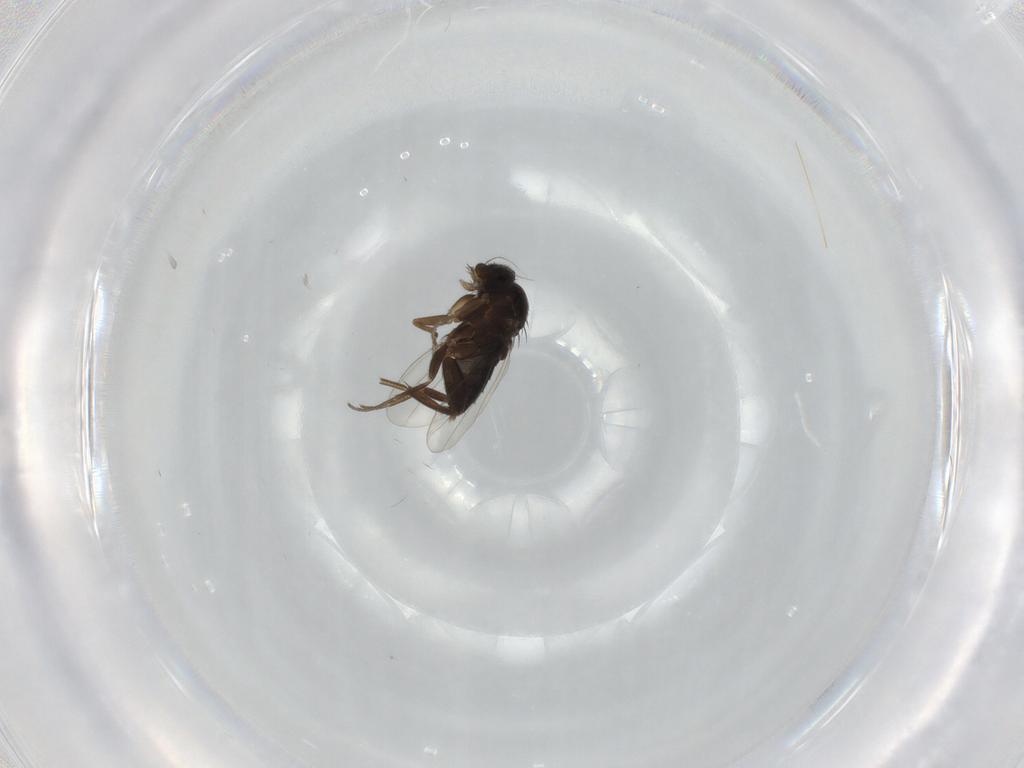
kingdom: Animalia
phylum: Arthropoda
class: Insecta
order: Diptera
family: Phoridae
